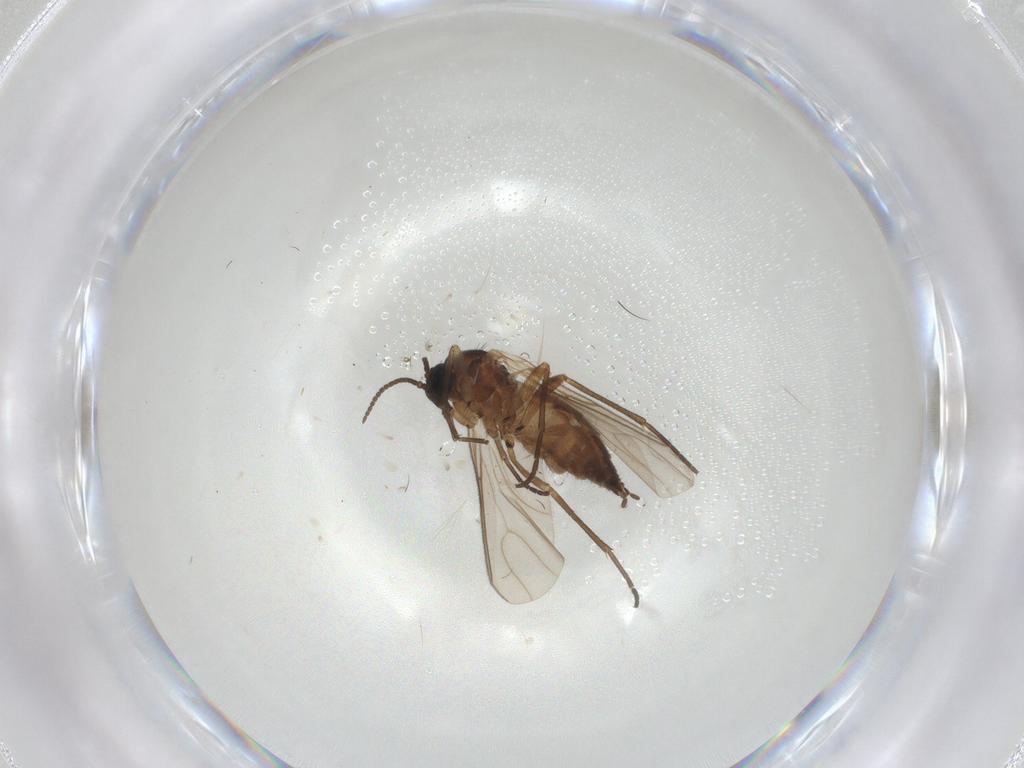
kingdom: Animalia
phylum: Arthropoda
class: Insecta
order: Diptera
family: Sciaridae
